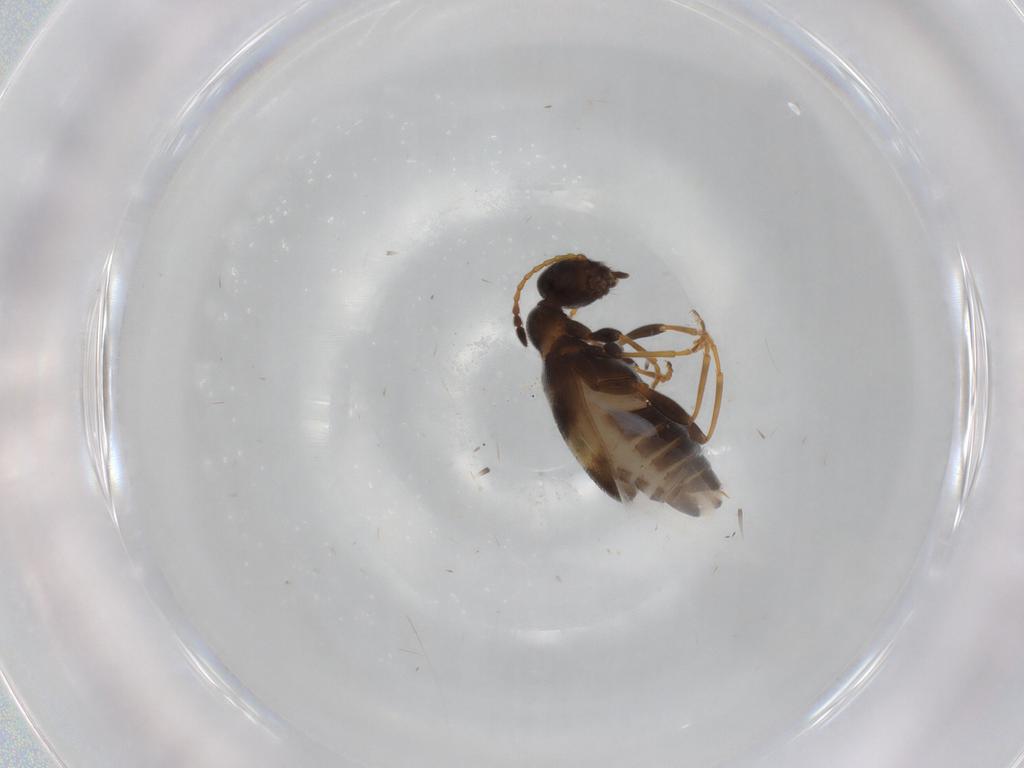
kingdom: Animalia
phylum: Arthropoda
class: Insecta
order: Coleoptera
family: Anthicidae
